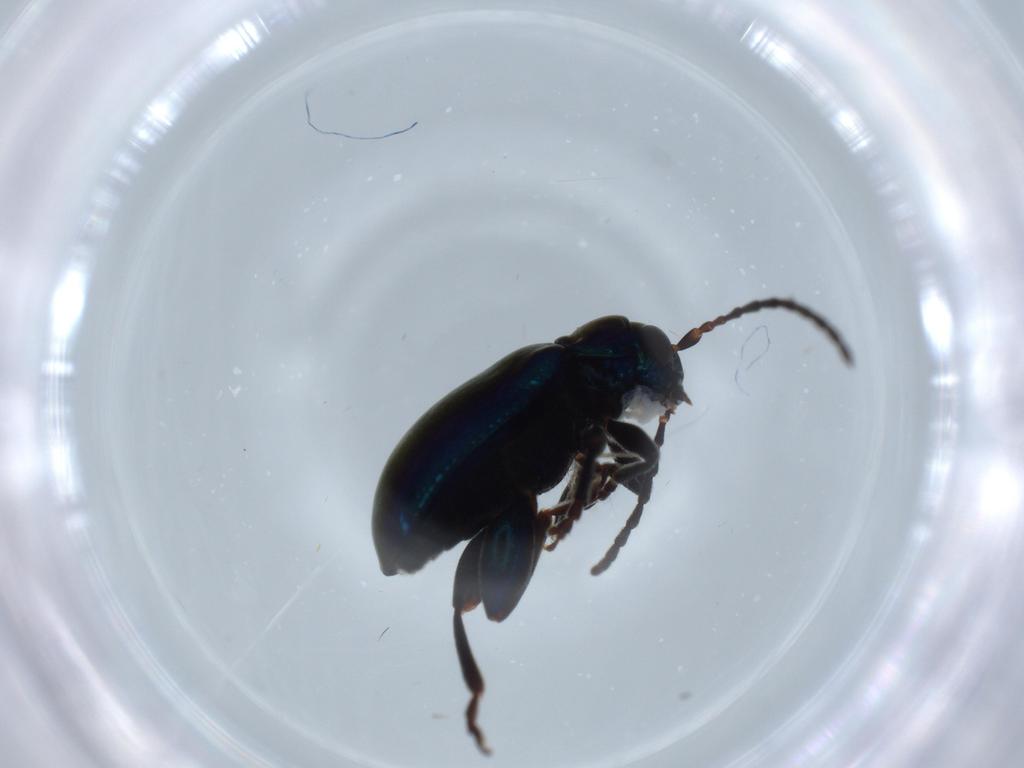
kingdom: Animalia
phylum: Arthropoda
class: Insecta
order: Coleoptera
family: Chrysomelidae
